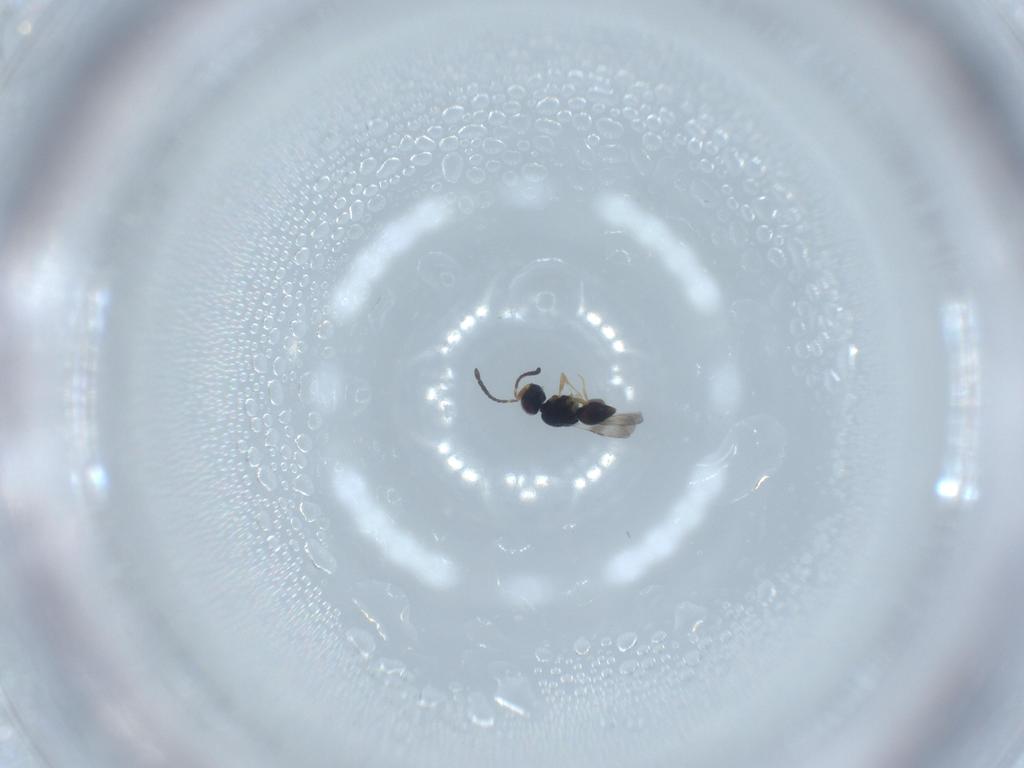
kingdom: Animalia
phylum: Arthropoda
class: Insecta
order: Hymenoptera
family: Ceraphronidae
